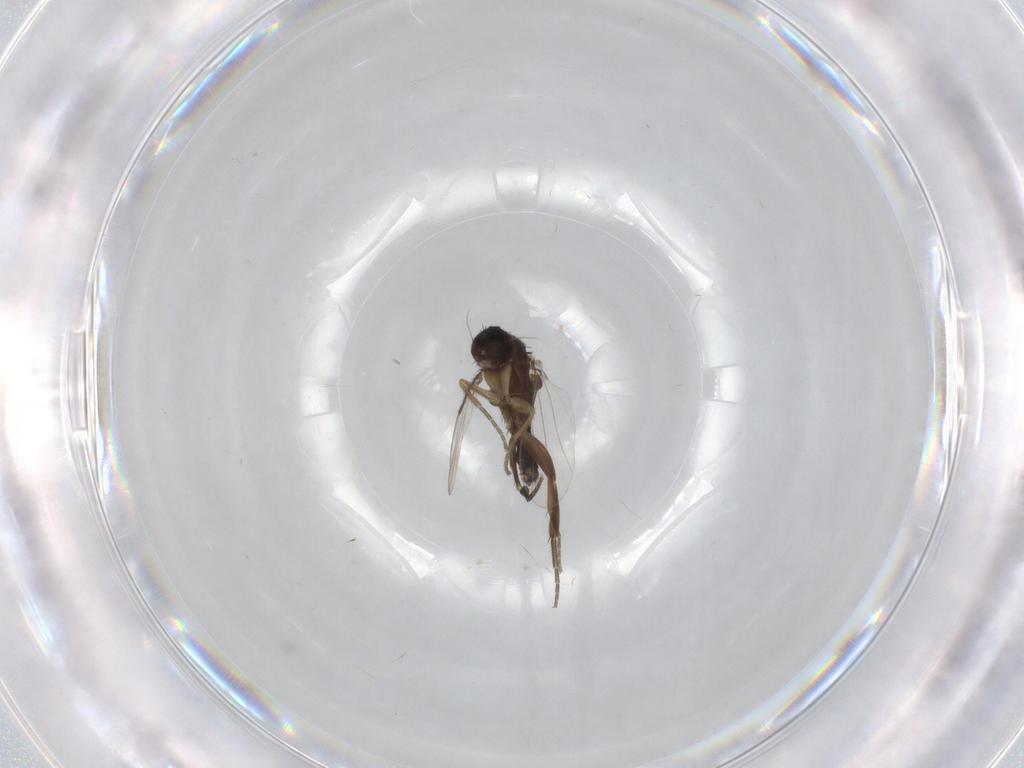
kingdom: Animalia
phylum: Arthropoda
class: Insecta
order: Diptera
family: Phoridae
